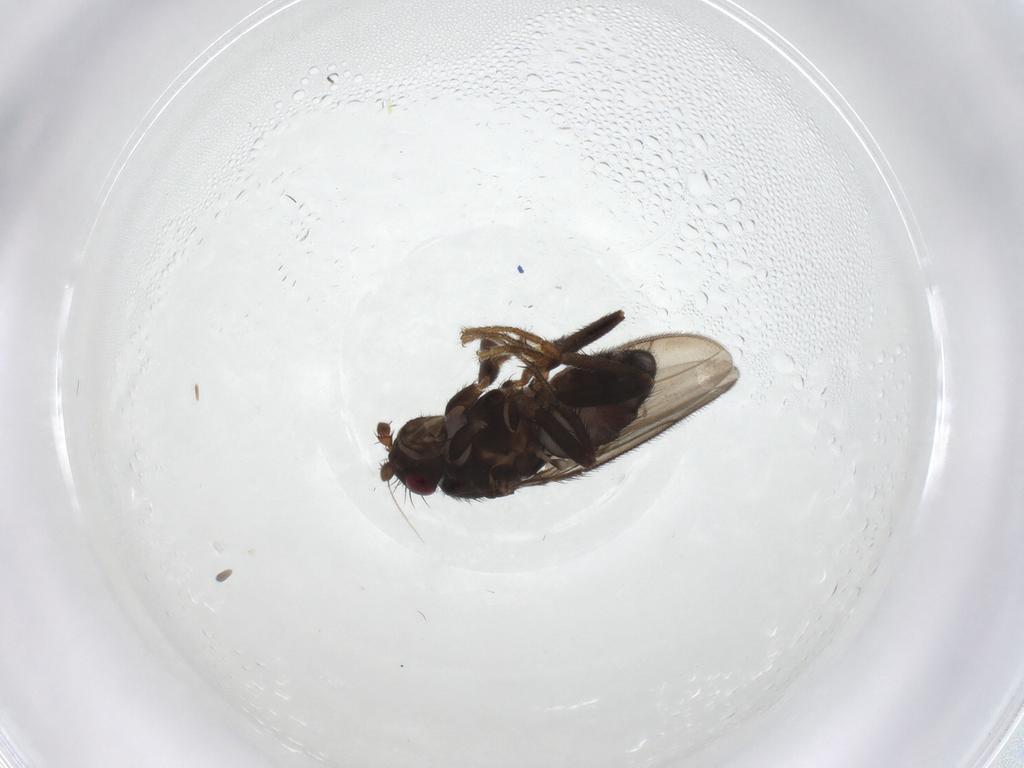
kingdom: Animalia
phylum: Arthropoda
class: Insecta
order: Diptera
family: Sphaeroceridae
